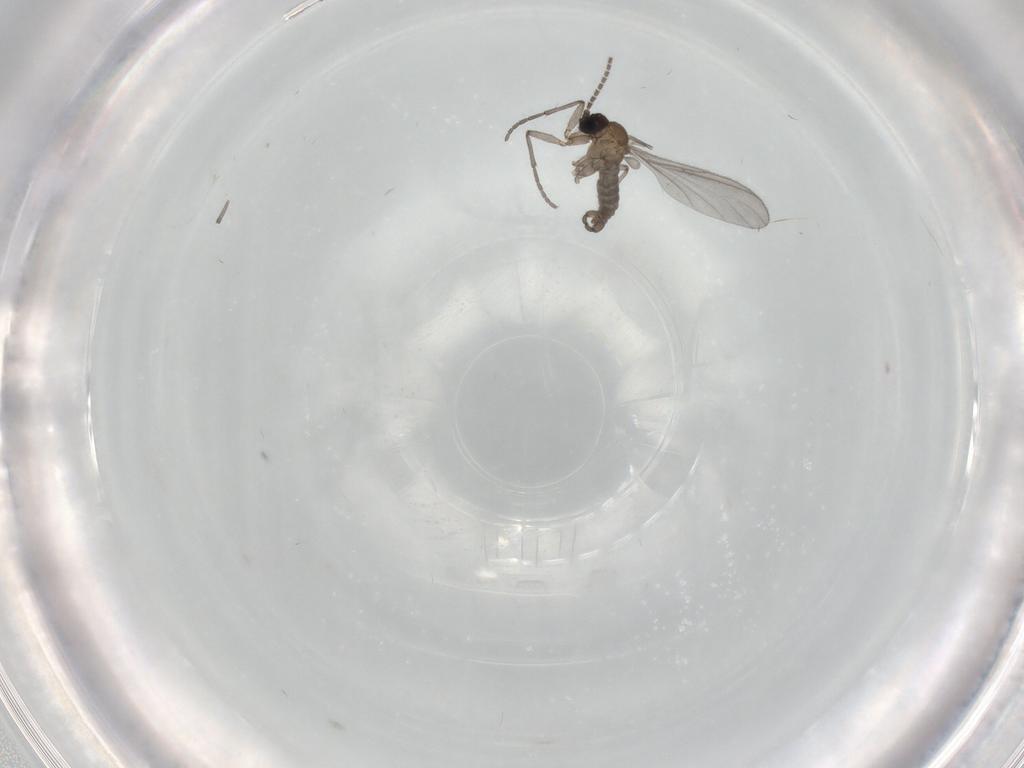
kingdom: Animalia
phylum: Arthropoda
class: Insecta
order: Diptera
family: Sciaridae
